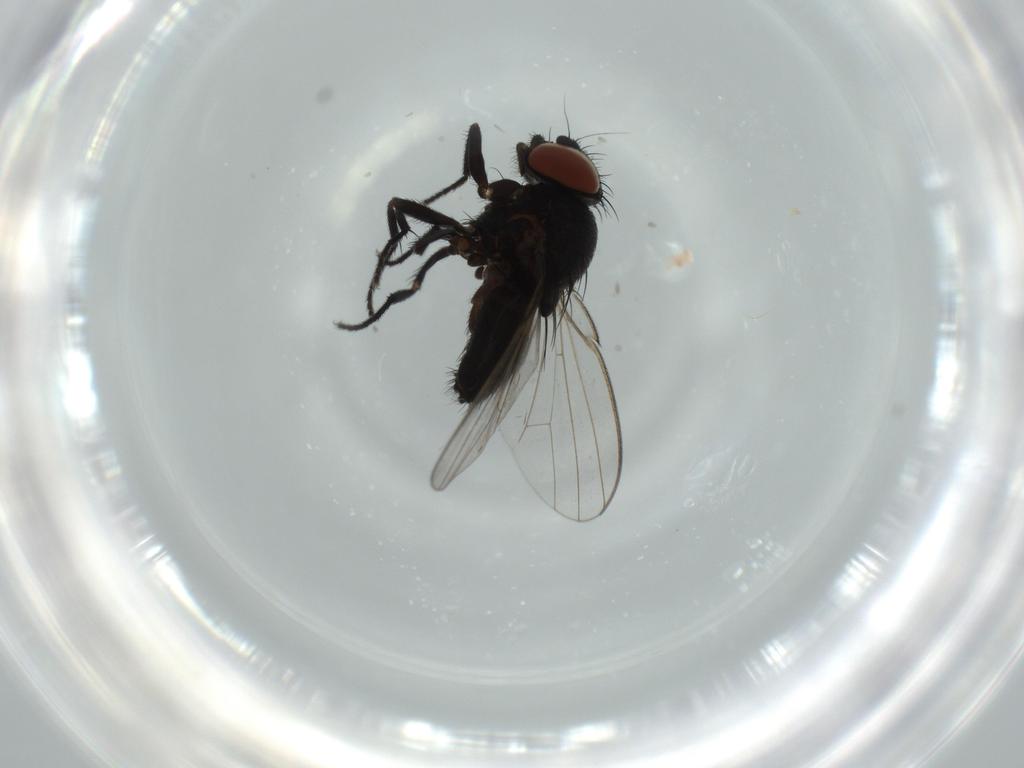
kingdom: Animalia
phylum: Arthropoda
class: Insecta
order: Diptera
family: Milichiidae
